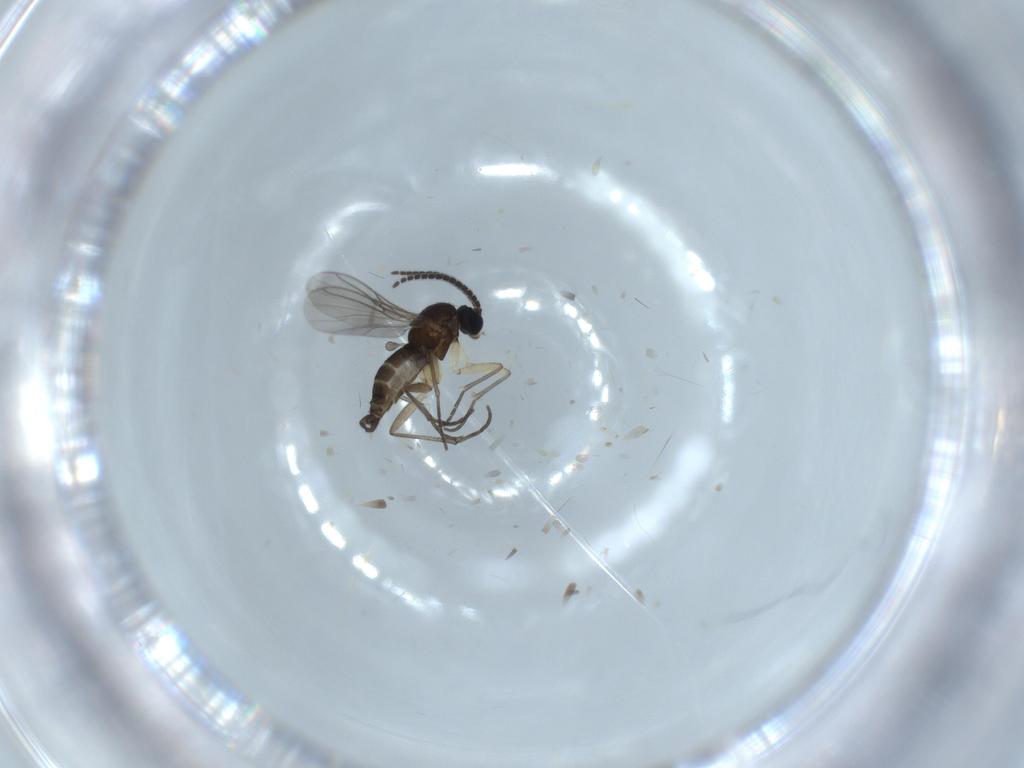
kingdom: Animalia
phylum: Arthropoda
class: Insecta
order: Diptera
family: Cecidomyiidae
